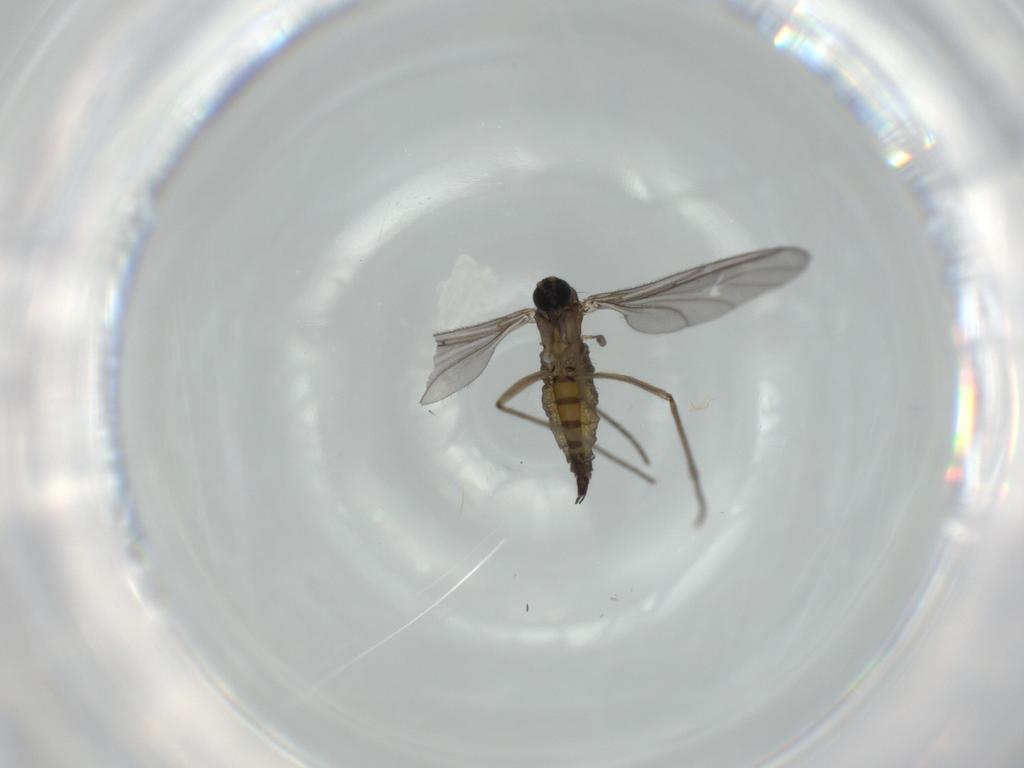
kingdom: Animalia
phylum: Arthropoda
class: Insecta
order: Diptera
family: Sciaridae
